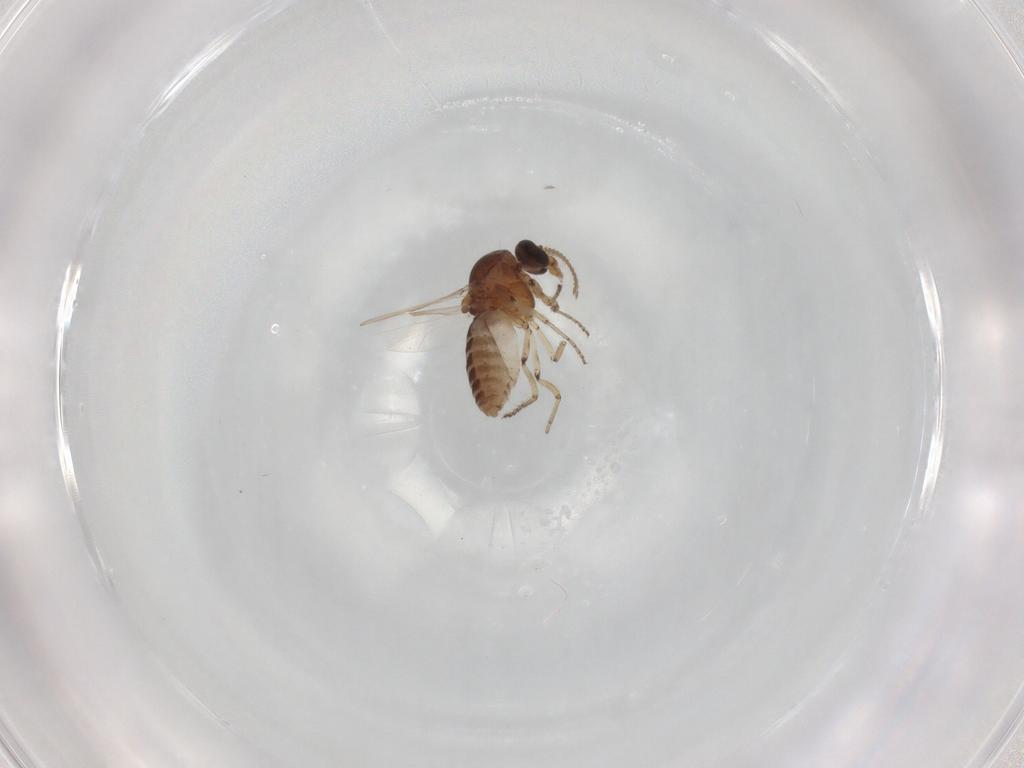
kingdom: Animalia
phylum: Arthropoda
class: Insecta
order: Diptera
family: Ceratopogonidae
